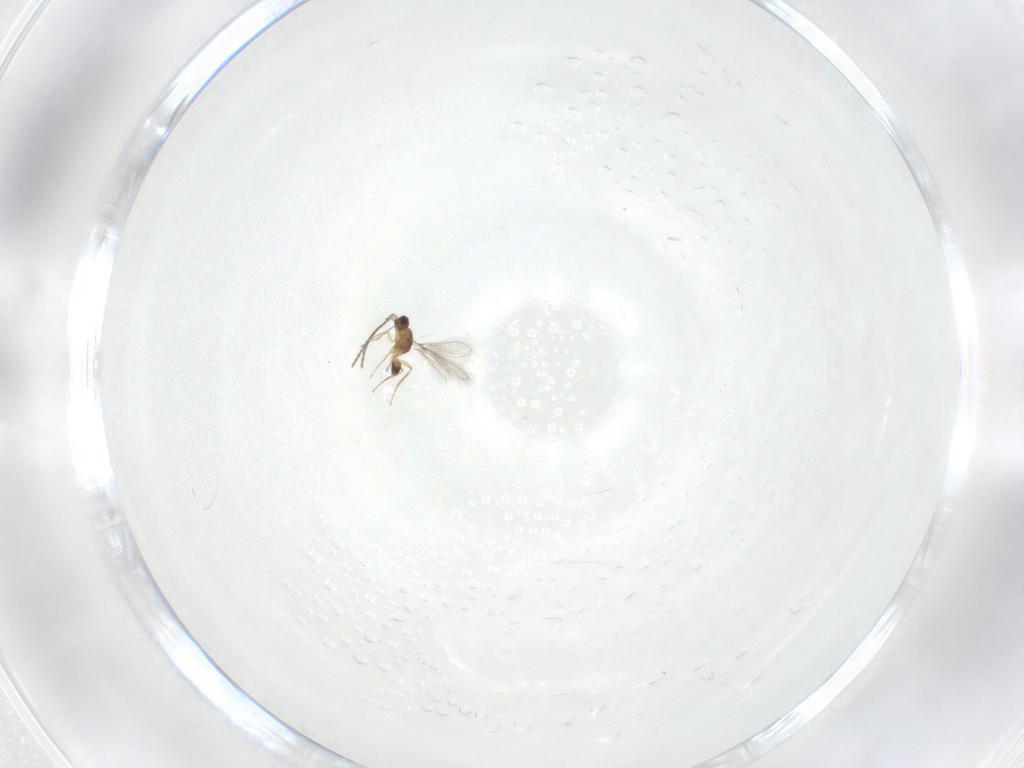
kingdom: Animalia
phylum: Arthropoda
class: Insecta
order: Hymenoptera
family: Mymaridae
